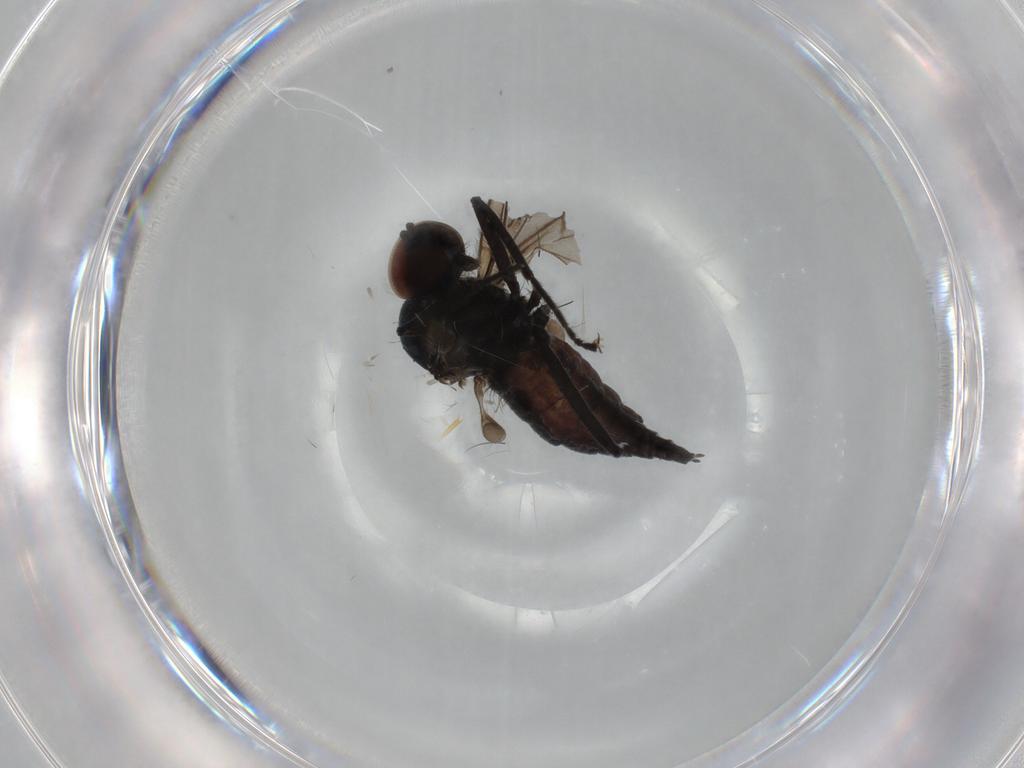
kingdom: Animalia
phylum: Arthropoda
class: Insecta
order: Diptera
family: Hybotidae
